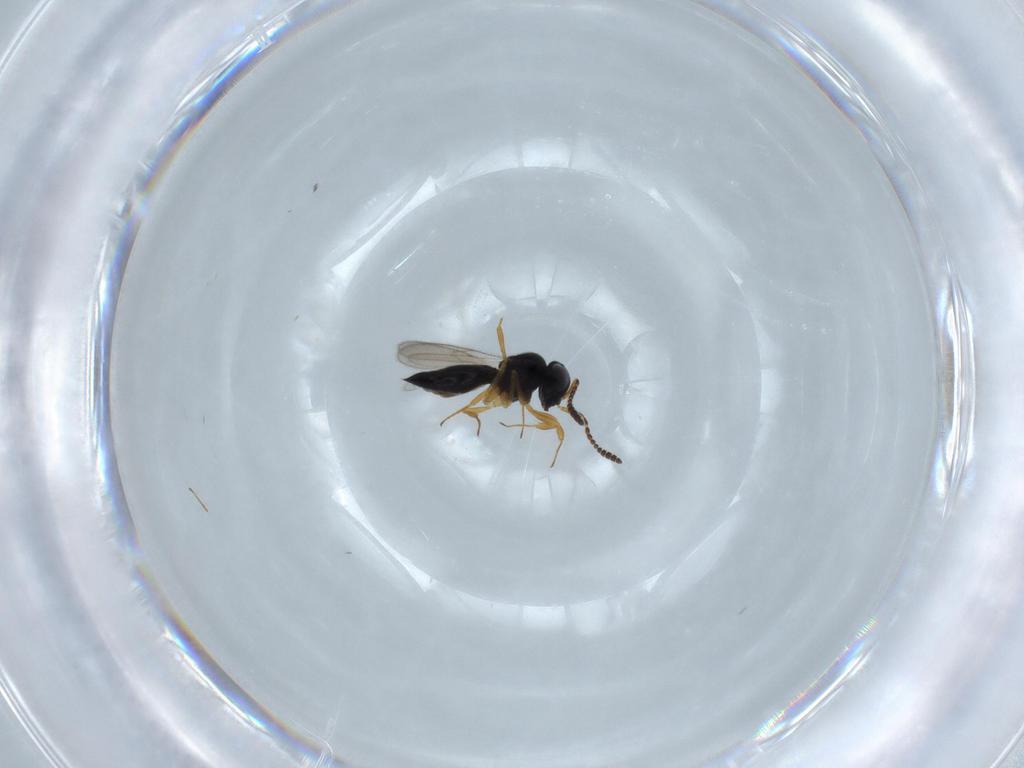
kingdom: Animalia
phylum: Arthropoda
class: Insecta
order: Hymenoptera
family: Scelionidae
